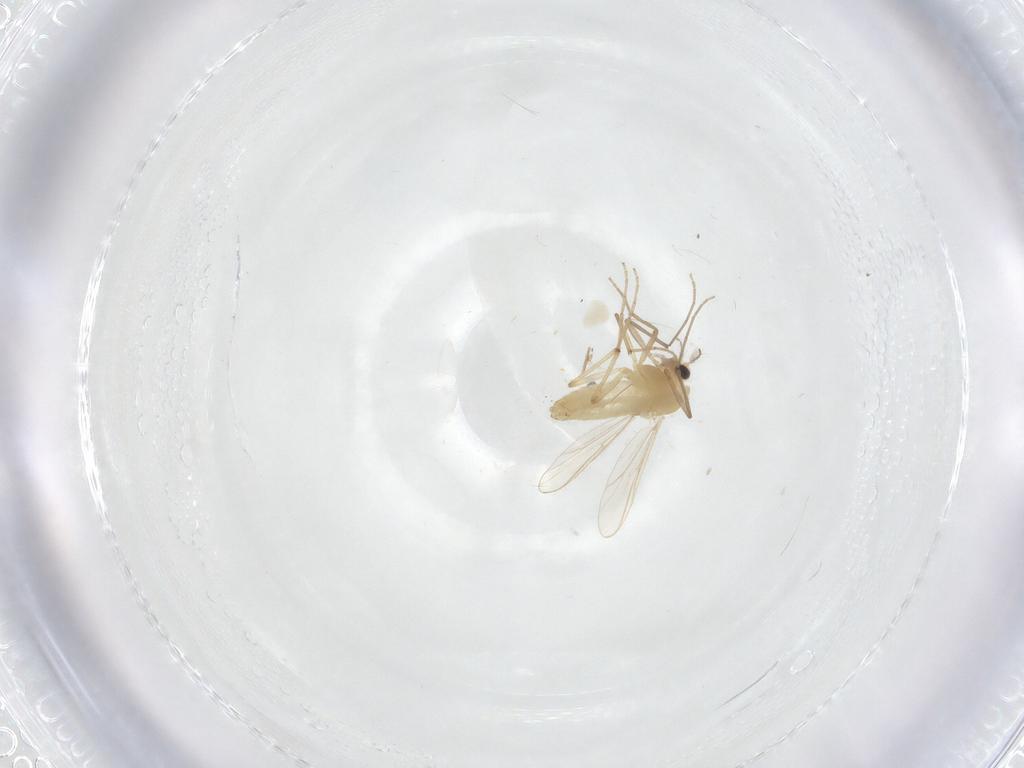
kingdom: Animalia
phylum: Arthropoda
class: Insecta
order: Diptera
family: Chironomidae
